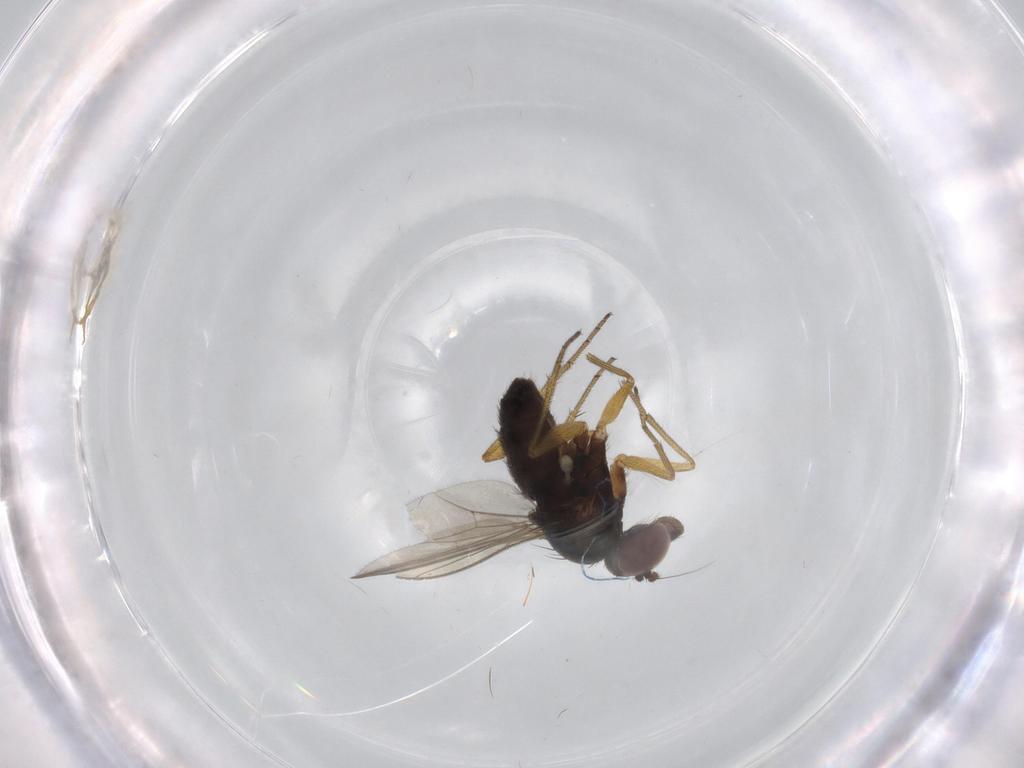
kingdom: Animalia
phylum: Arthropoda
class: Insecta
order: Diptera
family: Dolichopodidae
